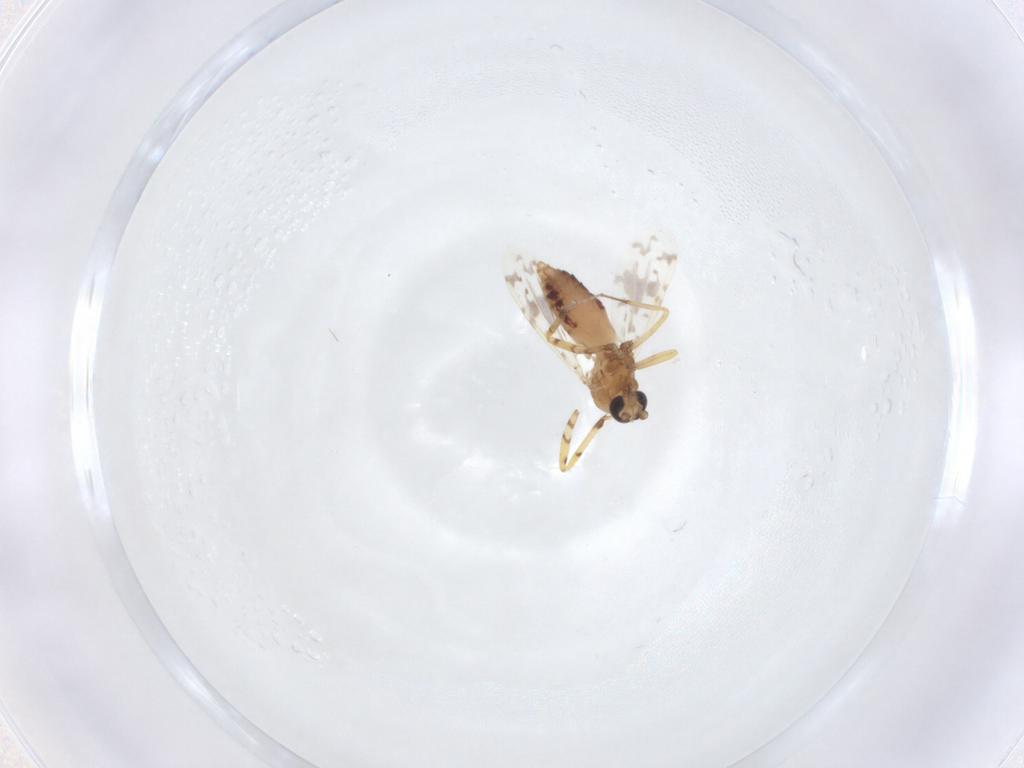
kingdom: Animalia
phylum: Arthropoda
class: Insecta
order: Diptera
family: Ceratopogonidae
